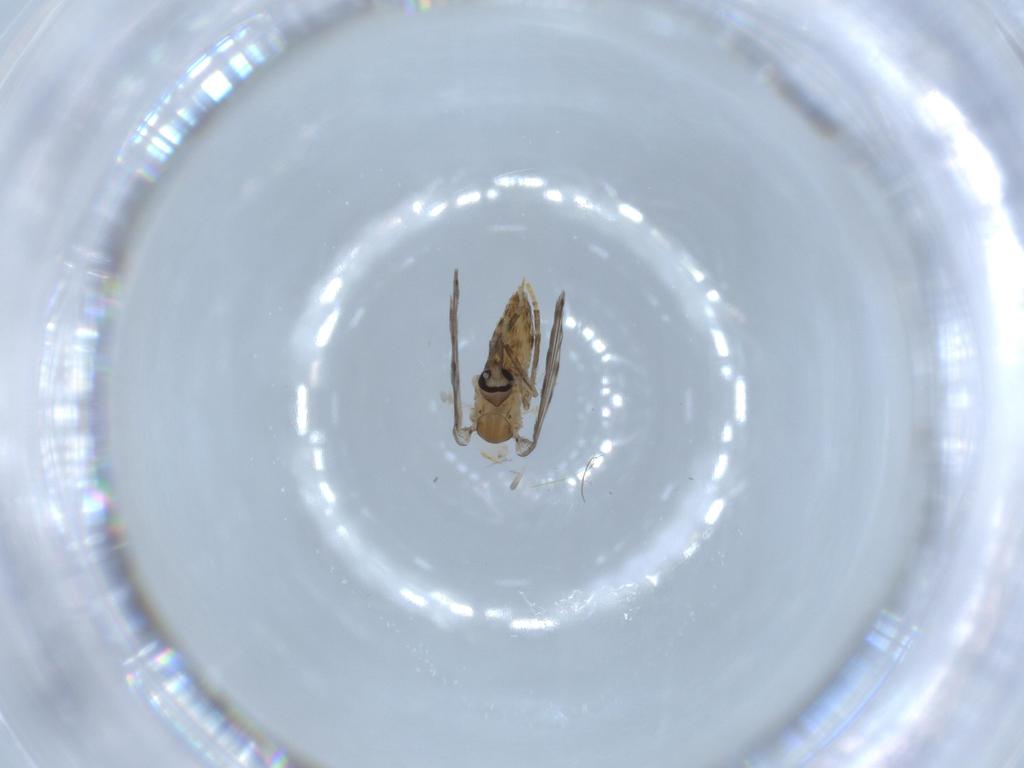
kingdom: Animalia
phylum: Arthropoda
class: Insecta
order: Diptera
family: Psychodidae
